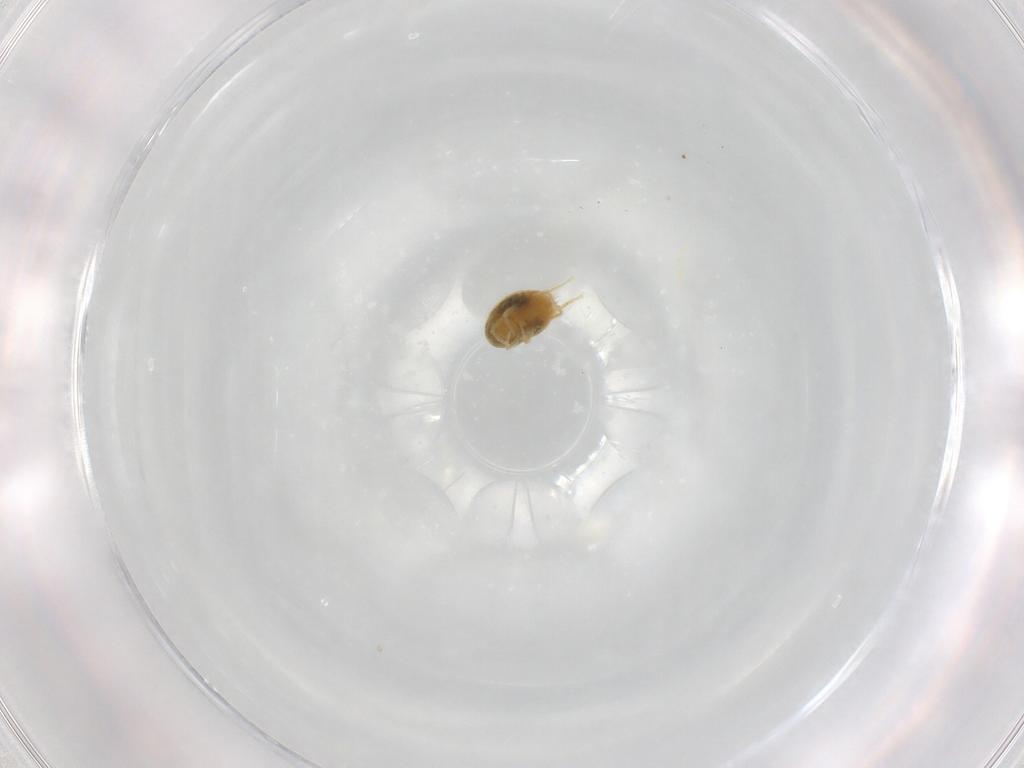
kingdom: Animalia
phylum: Arthropoda
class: Arachnida
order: Trombidiformes
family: Tetranychidae
